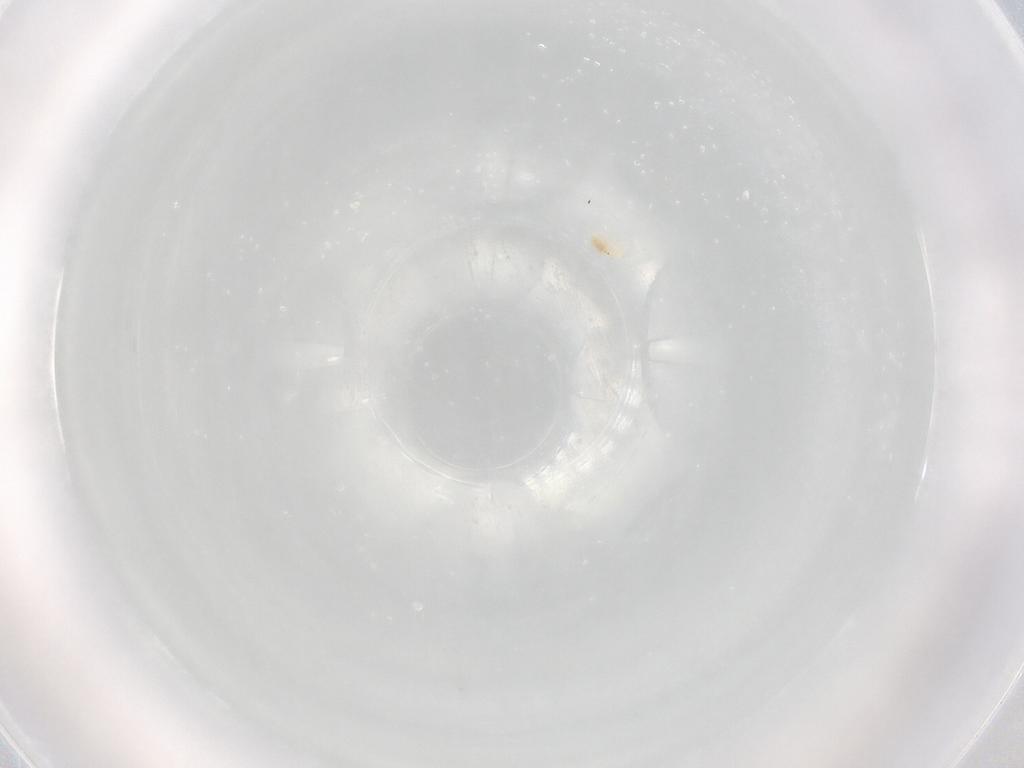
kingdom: Animalia
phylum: Arthropoda
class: Arachnida
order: Trombidiformes
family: Bdellidae
